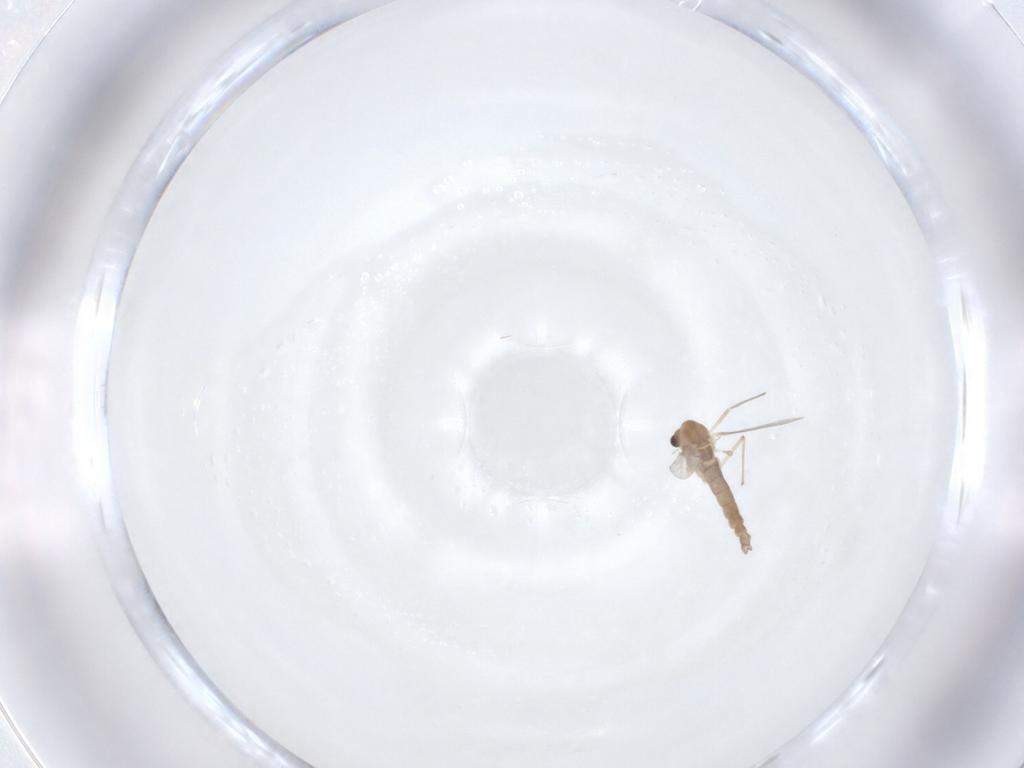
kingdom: Animalia
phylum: Arthropoda
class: Insecta
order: Diptera
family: Chironomidae
